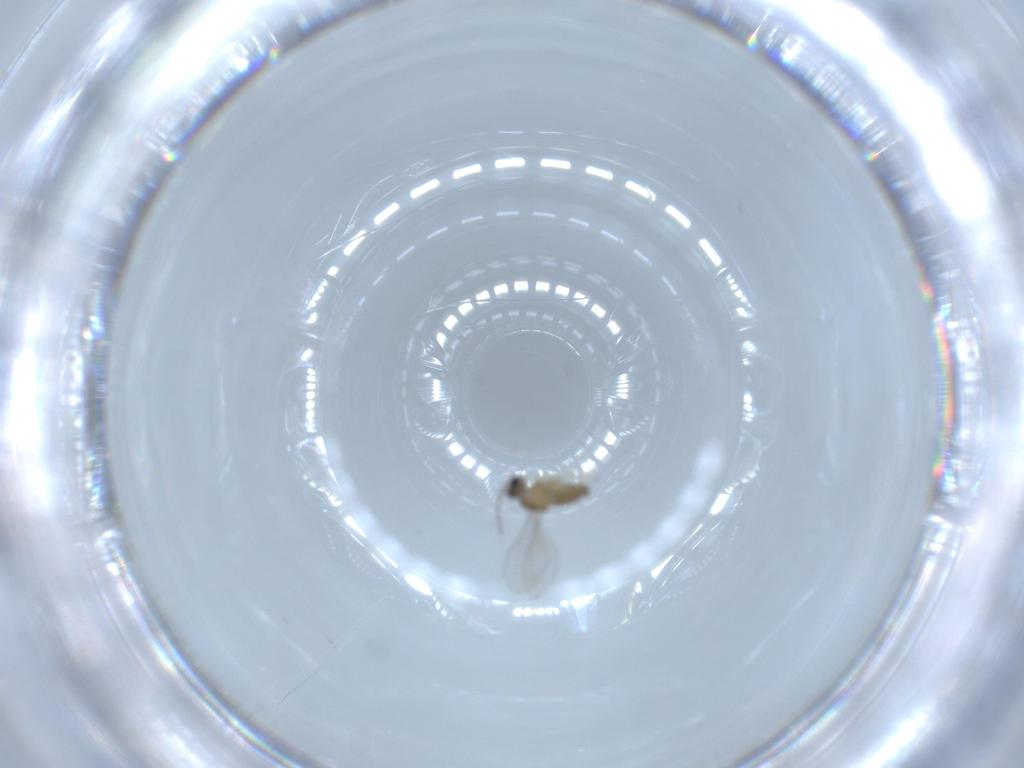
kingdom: Animalia
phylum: Arthropoda
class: Insecta
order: Diptera
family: Cecidomyiidae
